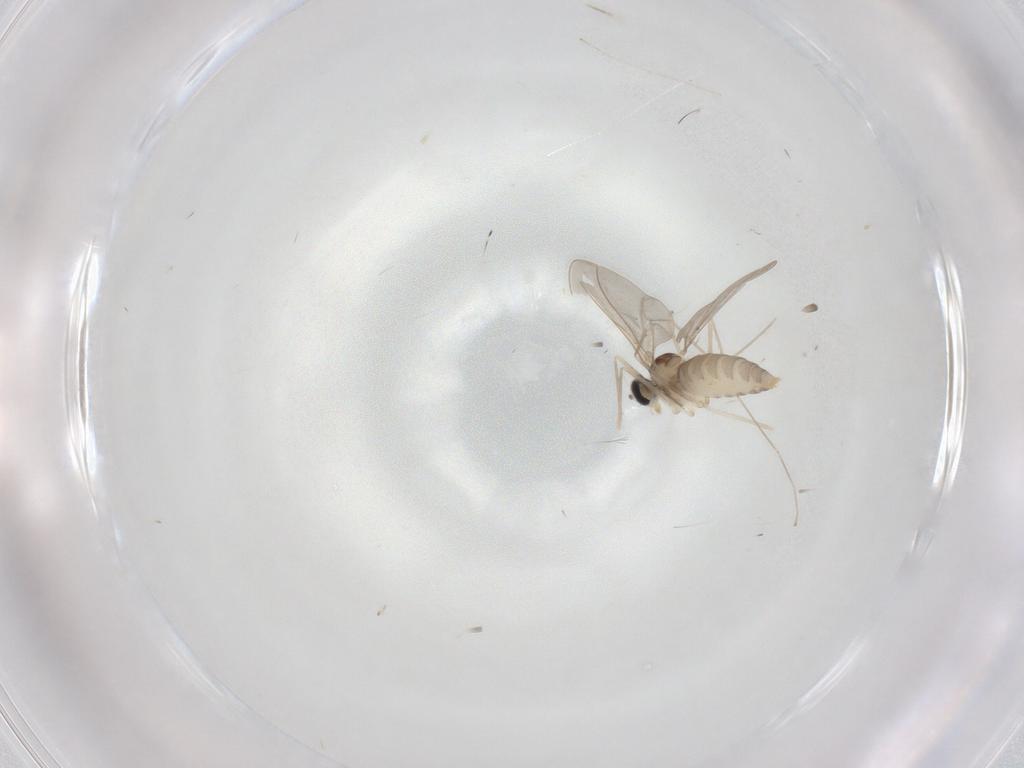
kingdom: Animalia
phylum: Arthropoda
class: Insecta
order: Diptera
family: Cecidomyiidae
